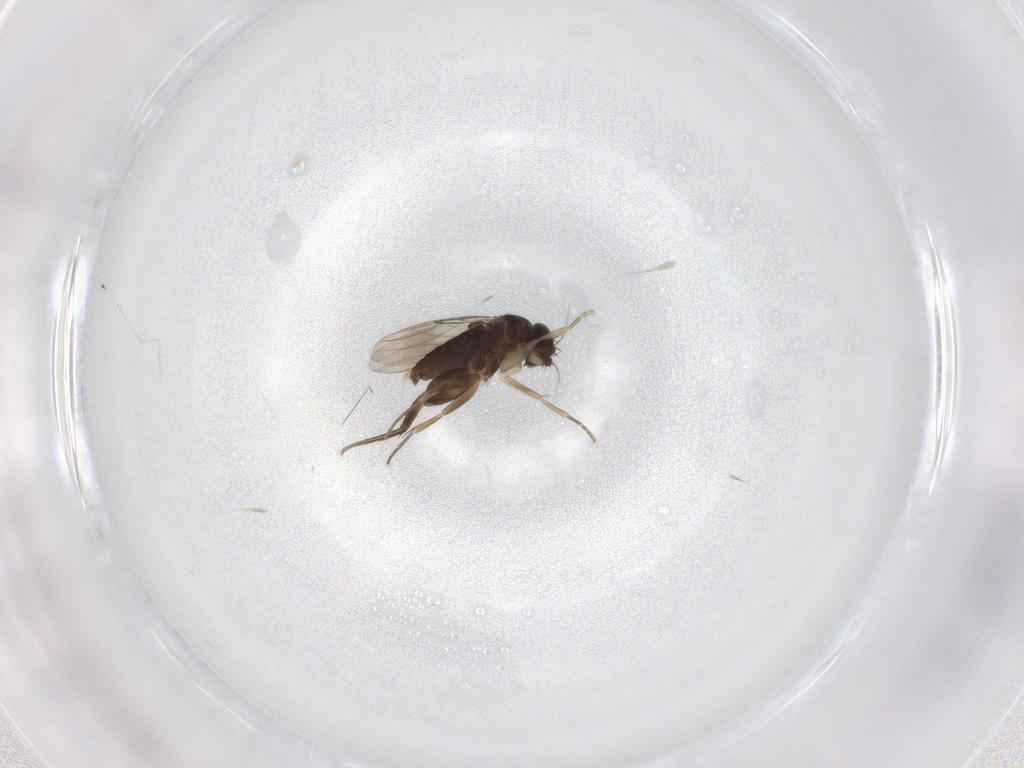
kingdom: Animalia
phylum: Arthropoda
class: Insecta
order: Diptera
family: Phoridae
